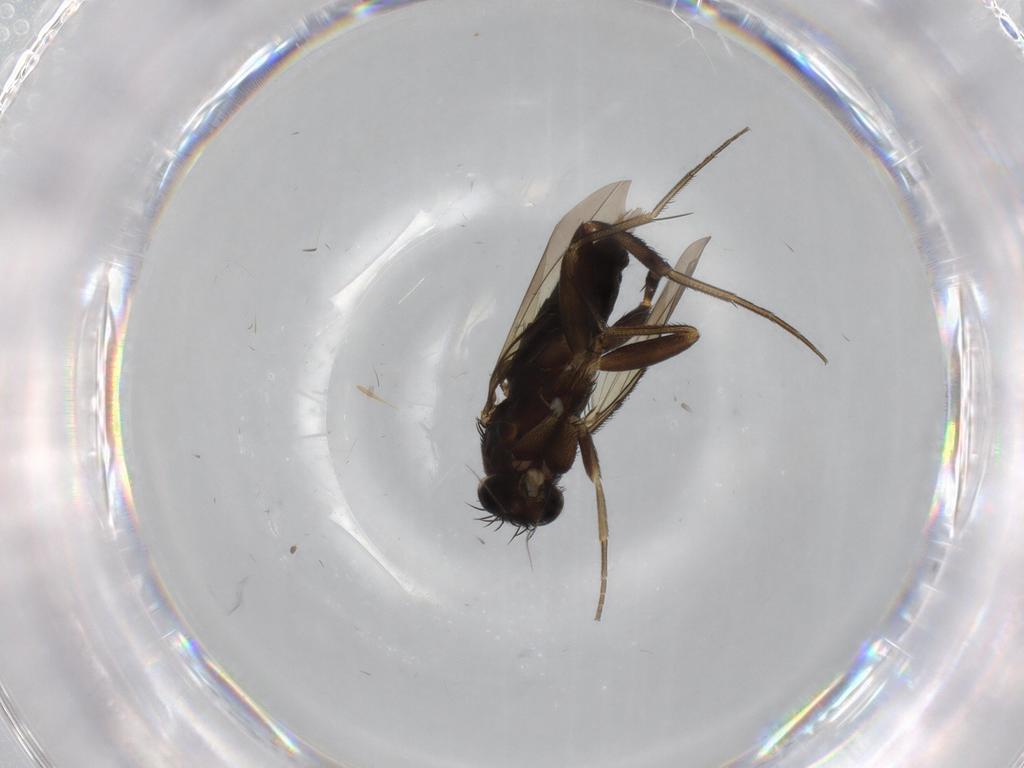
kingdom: Animalia
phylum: Arthropoda
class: Insecta
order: Diptera
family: Phoridae
